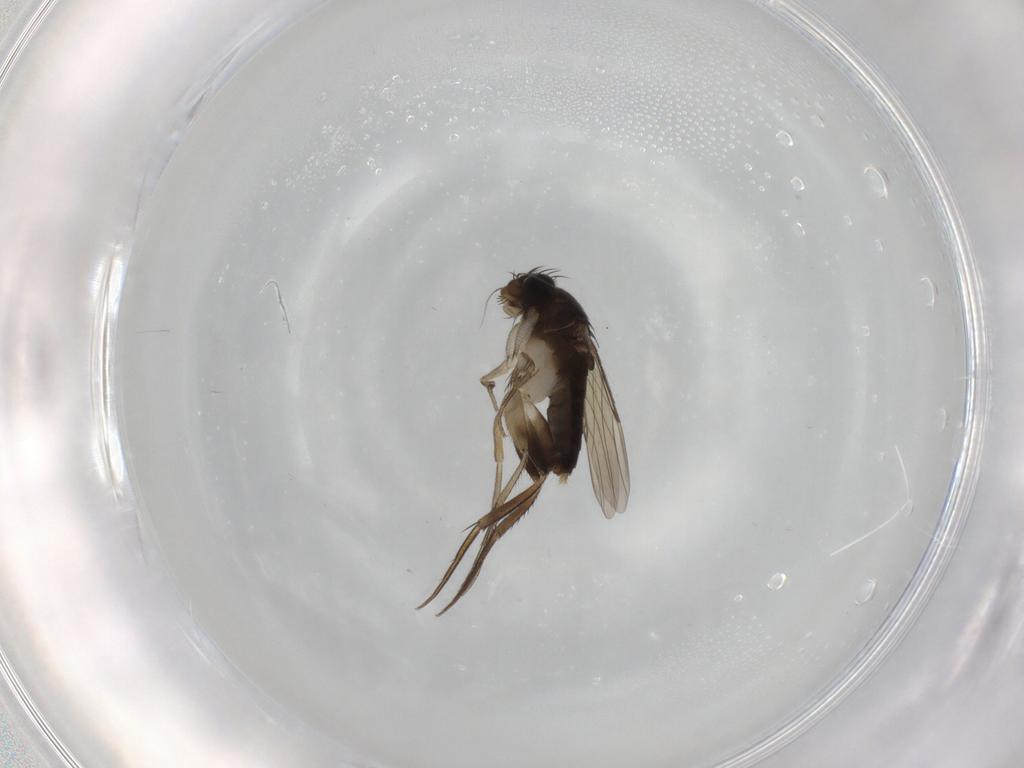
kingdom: Animalia
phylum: Arthropoda
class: Insecta
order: Diptera
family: Phoridae
